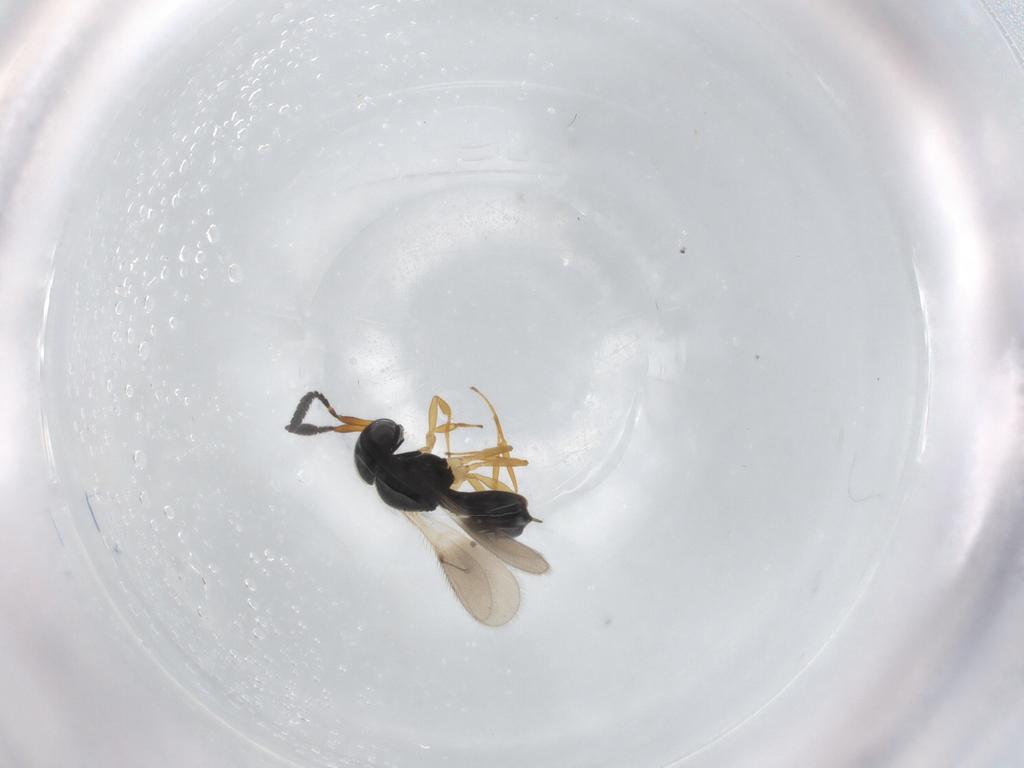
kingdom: Animalia
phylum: Arthropoda
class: Insecta
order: Hymenoptera
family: Scelionidae
